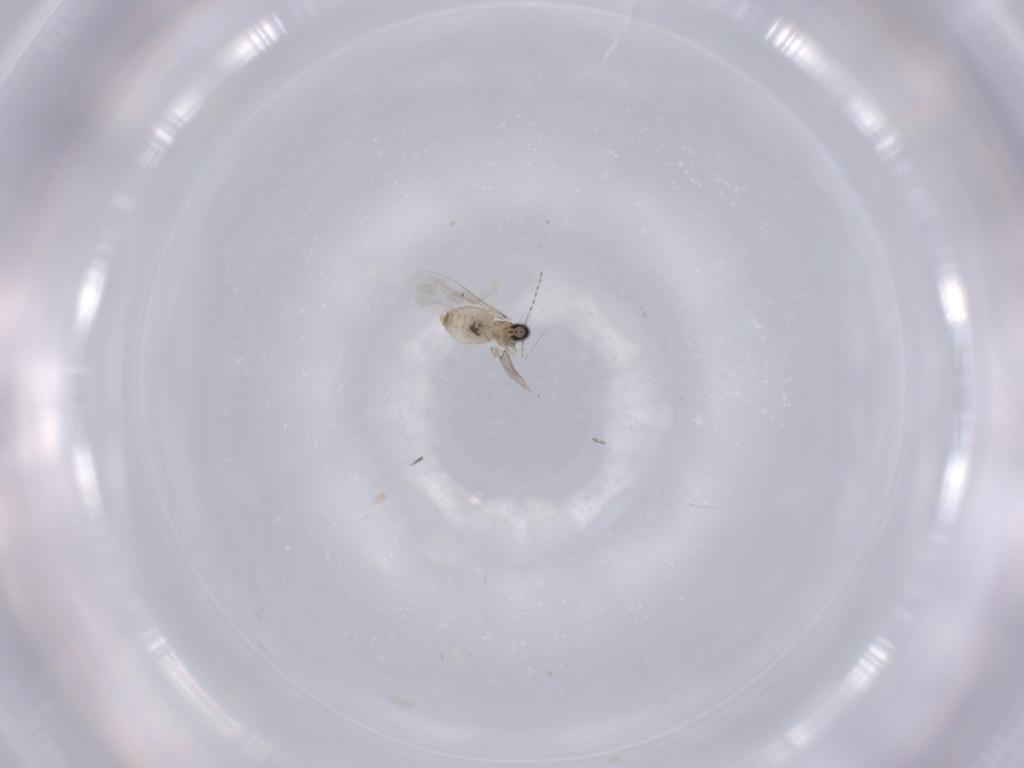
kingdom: Animalia
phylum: Arthropoda
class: Insecta
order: Diptera
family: Cecidomyiidae
